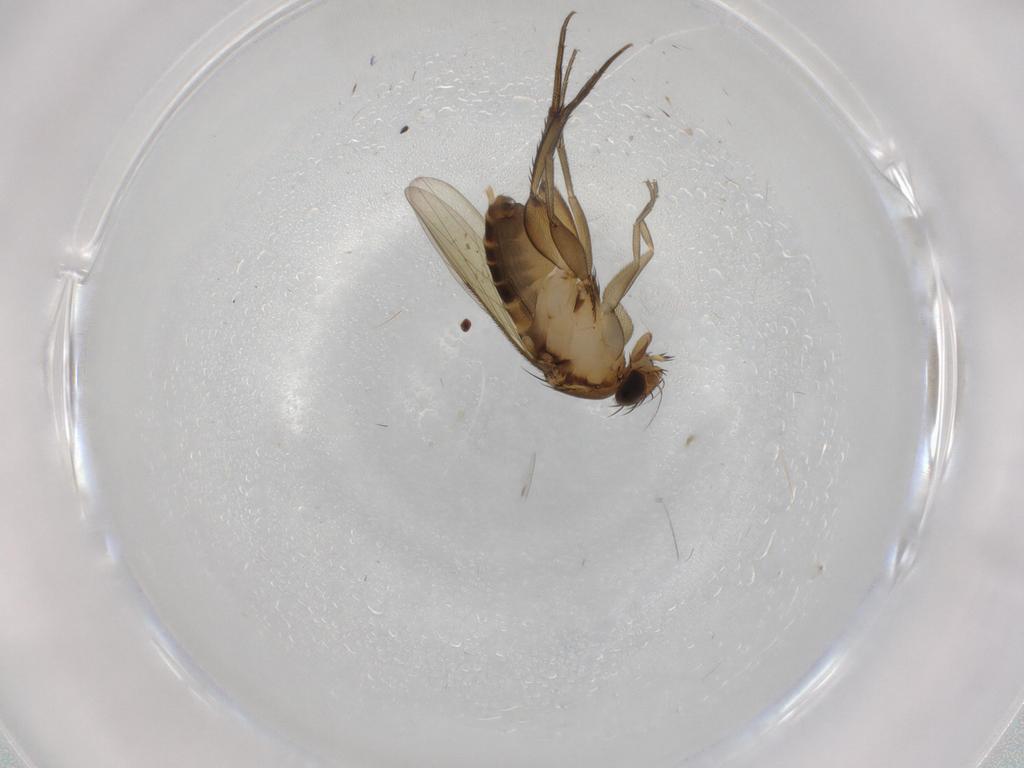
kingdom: Animalia
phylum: Arthropoda
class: Insecta
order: Diptera
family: Phoridae
